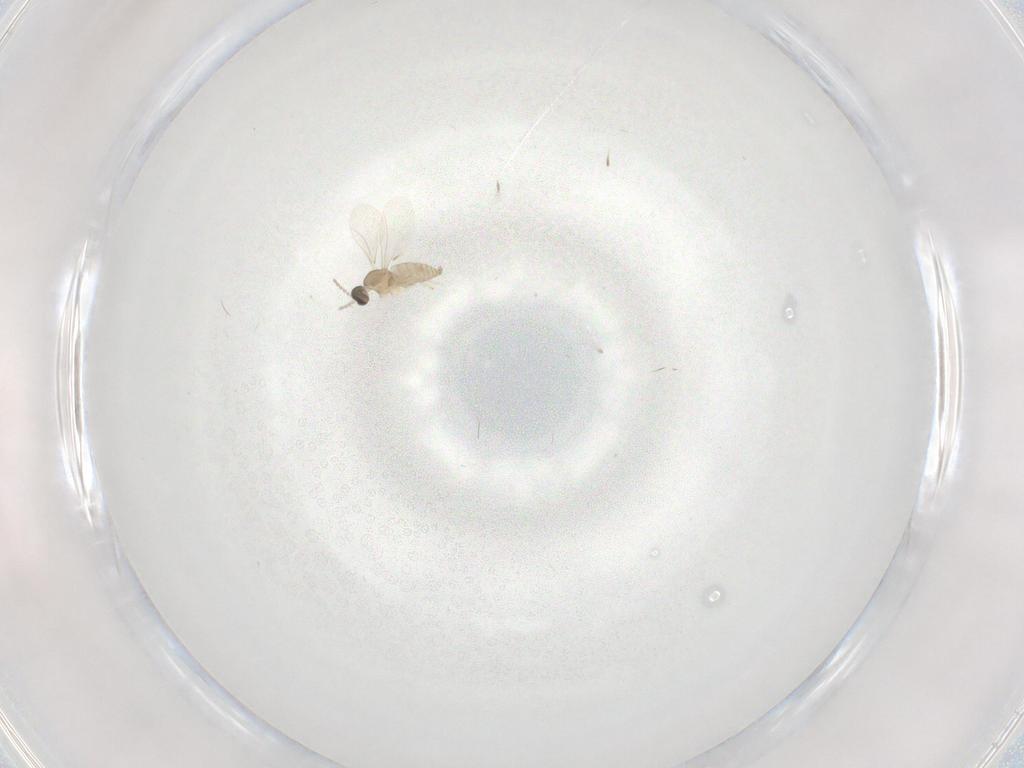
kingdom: Animalia
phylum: Arthropoda
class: Insecta
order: Diptera
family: Cecidomyiidae
